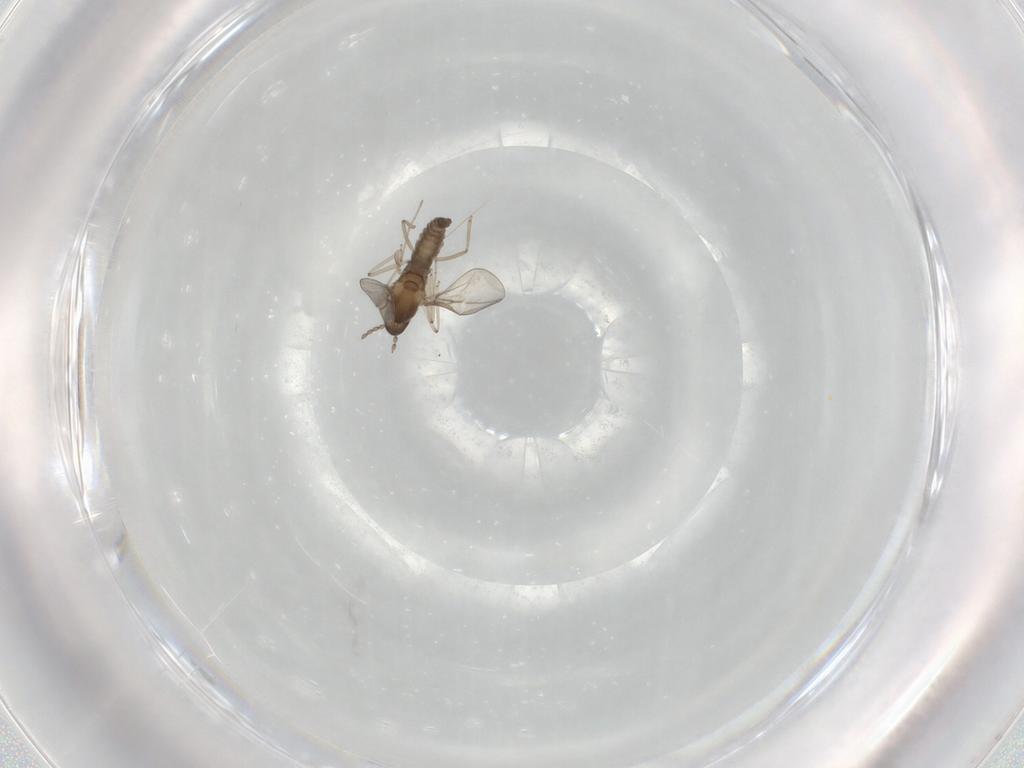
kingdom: Animalia
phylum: Arthropoda
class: Insecta
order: Diptera
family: Cecidomyiidae
